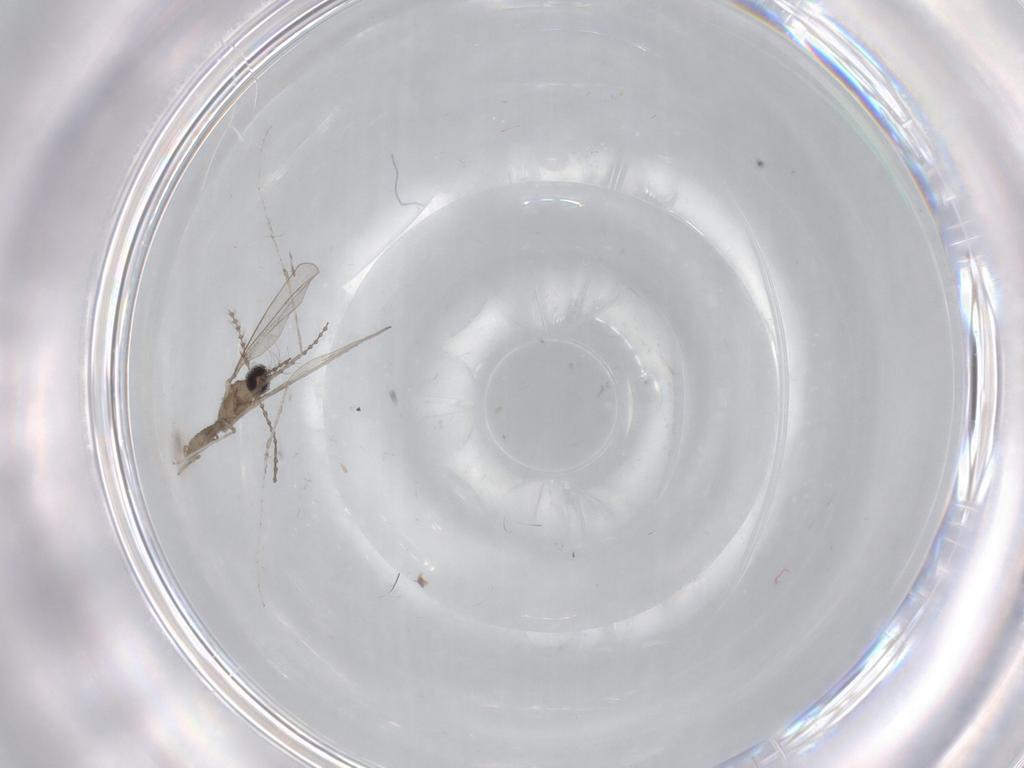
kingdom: Animalia
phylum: Arthropoda
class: Insecta
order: Diptera
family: Cecidomyiidae
